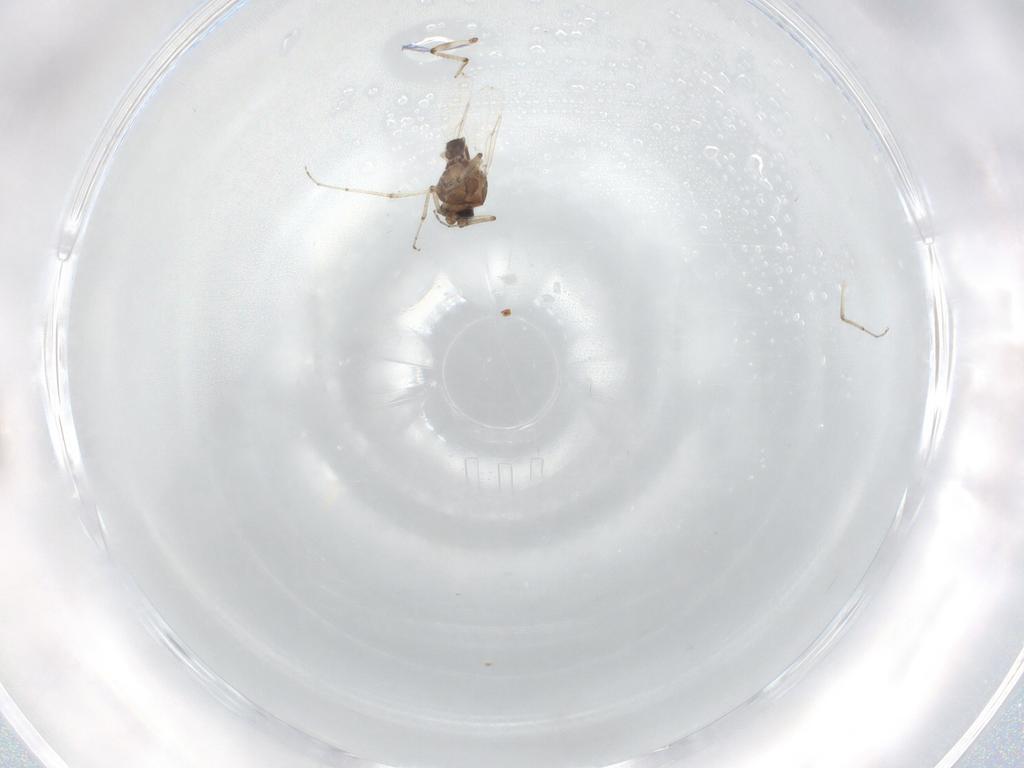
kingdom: Animalia
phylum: Arthropoda
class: Insecta
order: Diptera
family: Ceratopogonidae
